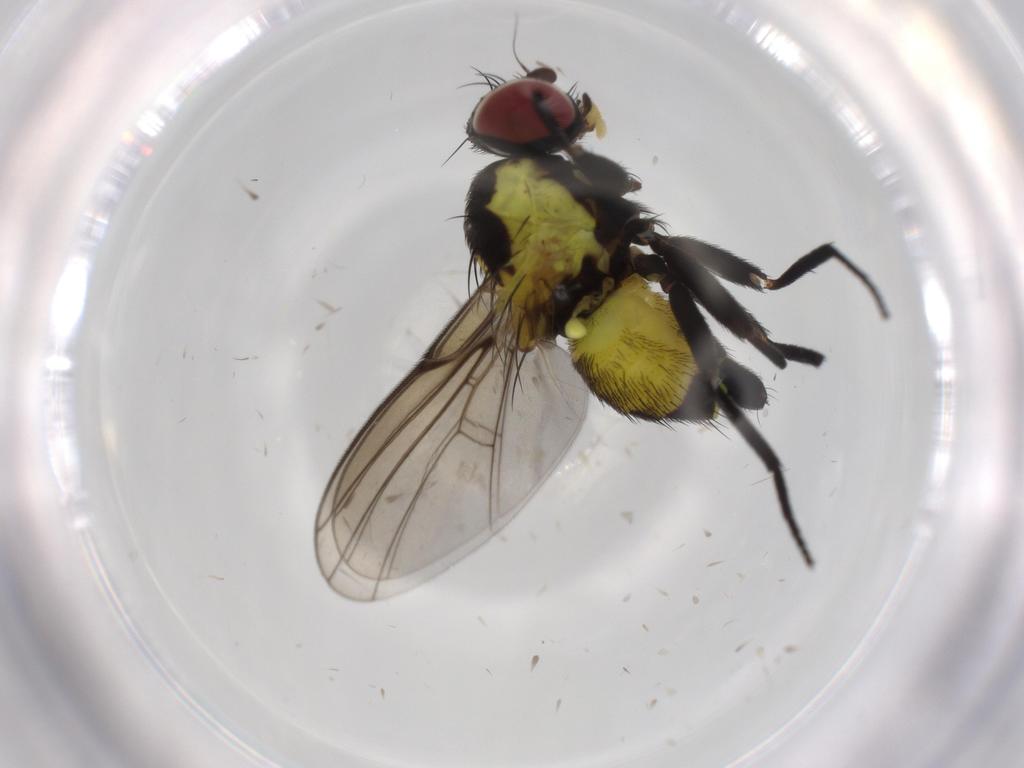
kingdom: Animalia
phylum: Arthropoda
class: Insecta
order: Diptera
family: Agromyzidae
